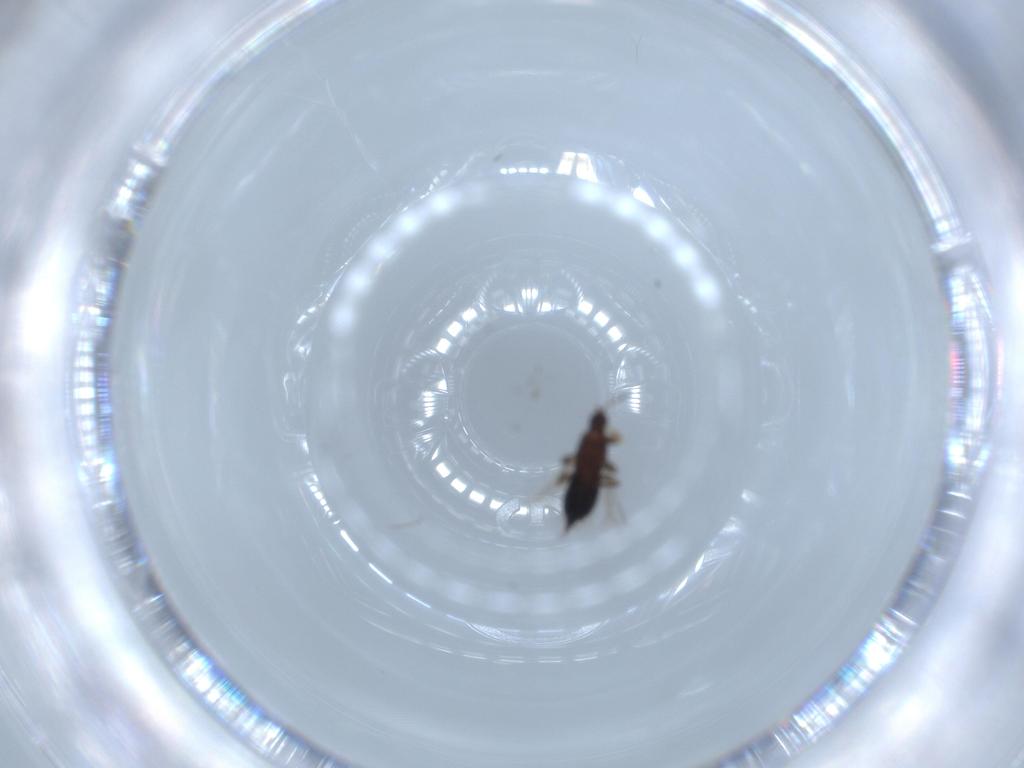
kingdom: Animalia
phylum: Arthropoda
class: Insecta
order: Thysanoptera
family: Phlaeothripidae
